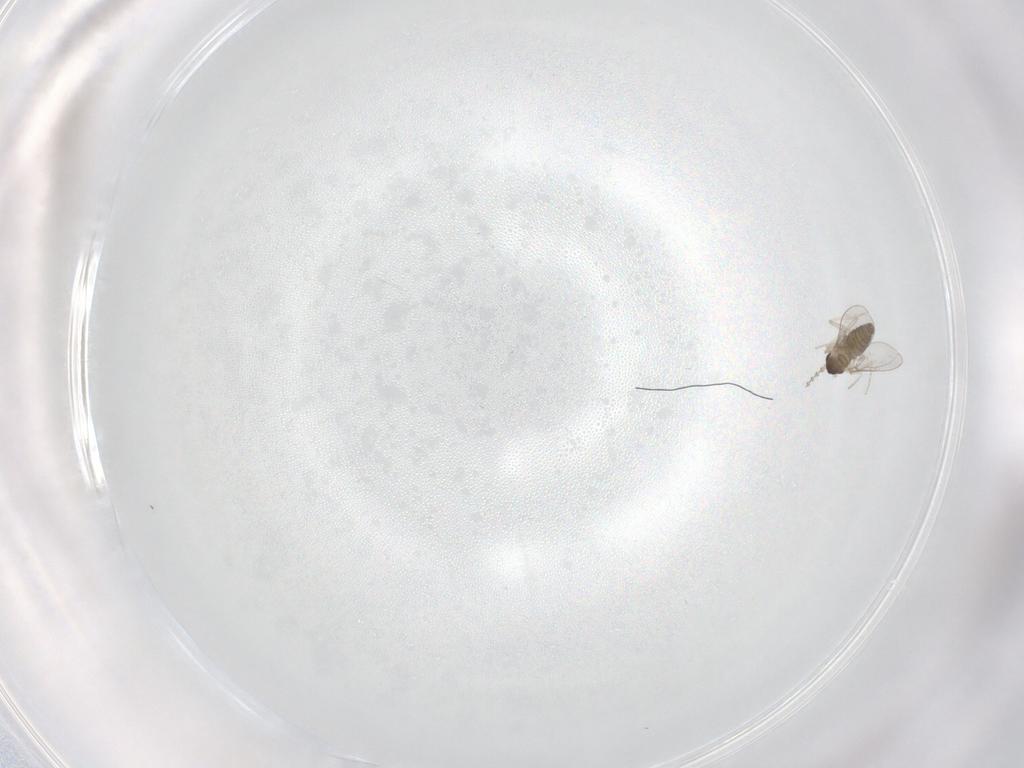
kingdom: Animalia
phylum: Arthropoda
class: Insecta
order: Diptera
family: Cecidomyiidae
